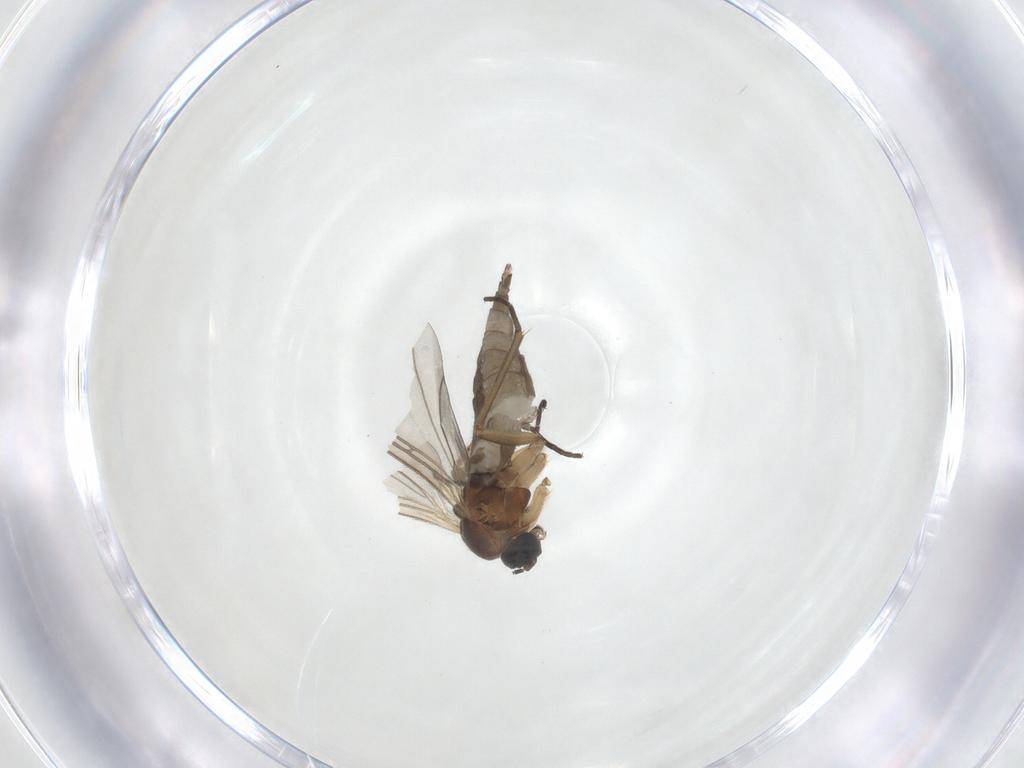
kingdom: Animalia
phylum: Arthropoda
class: Insecta
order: Diptera
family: Sciaridae
